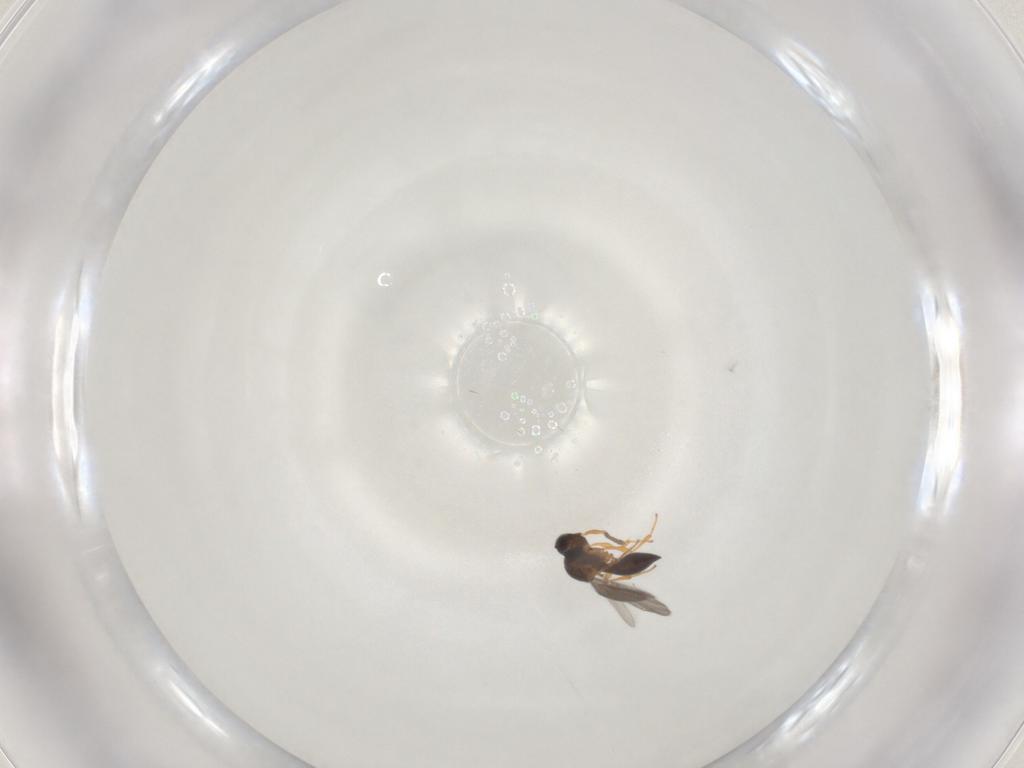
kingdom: Animalia
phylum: Arthropoda
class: Insecta
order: Hymenoptera
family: Platygastridae
